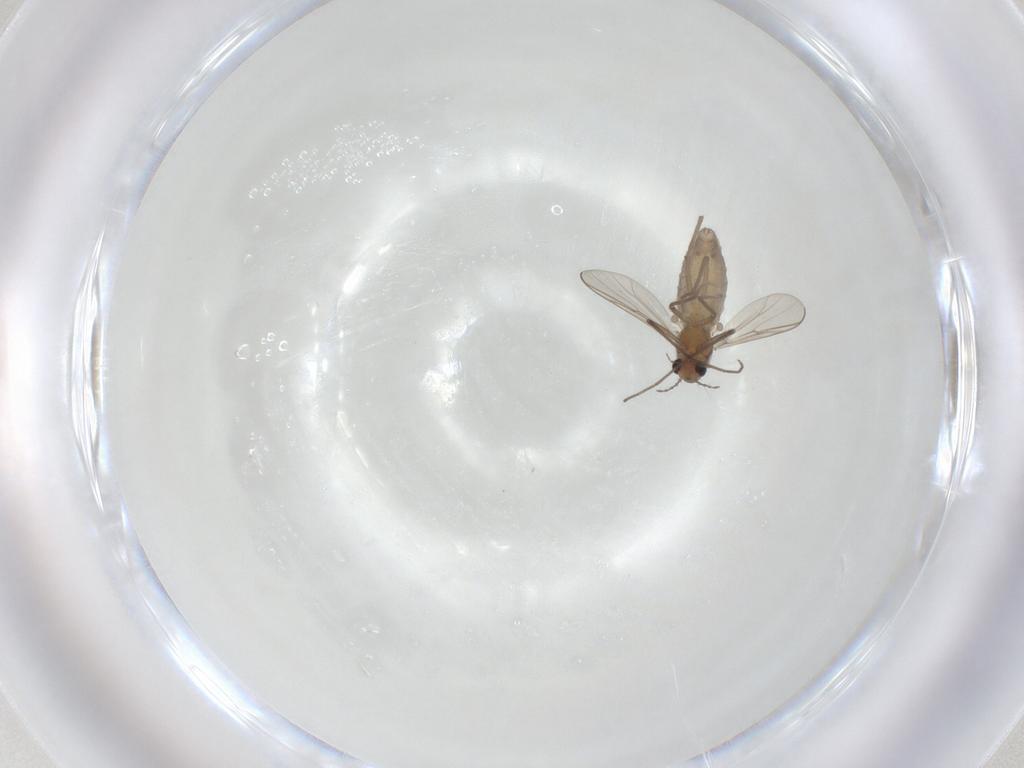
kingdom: Animalia
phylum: Arthropoda
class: Insecta
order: Diptera
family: Chironomidae
